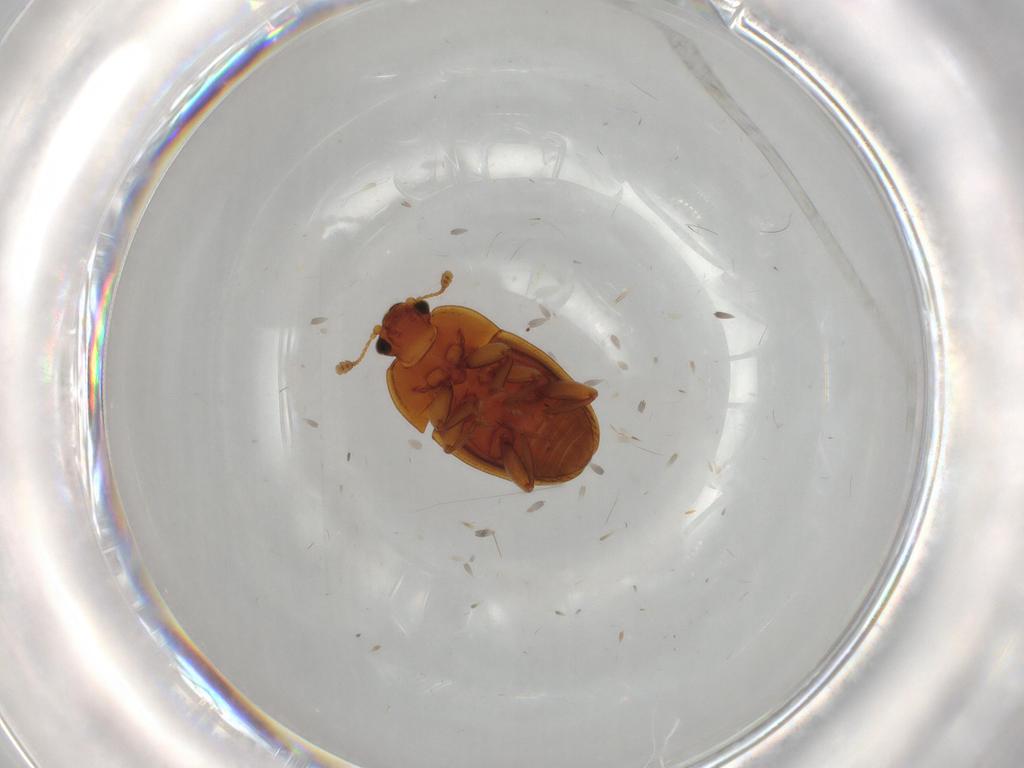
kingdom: Animalia
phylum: Arthropoda
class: Insecta
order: Coleoptera
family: Nitidulidae
